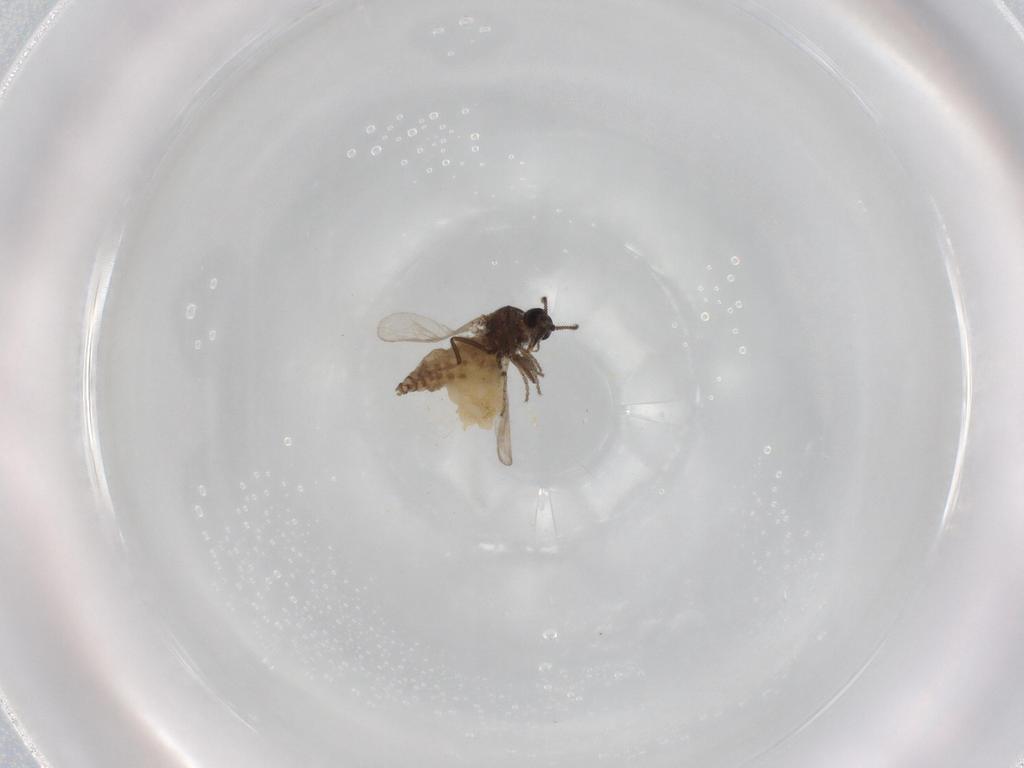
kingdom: Animalia
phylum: Arthropoda
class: Insecta
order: Diptera
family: Ceratopogonidae
